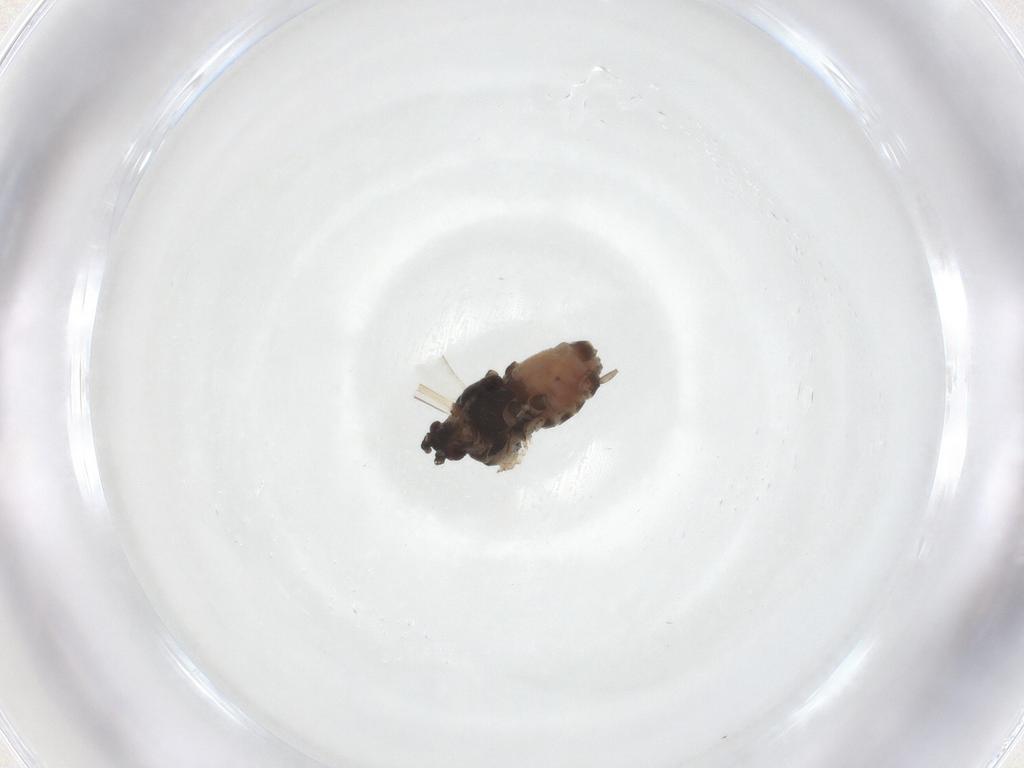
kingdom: Animalia
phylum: Arthropoda
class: Insecta
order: Hemiptera
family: Aphididae
